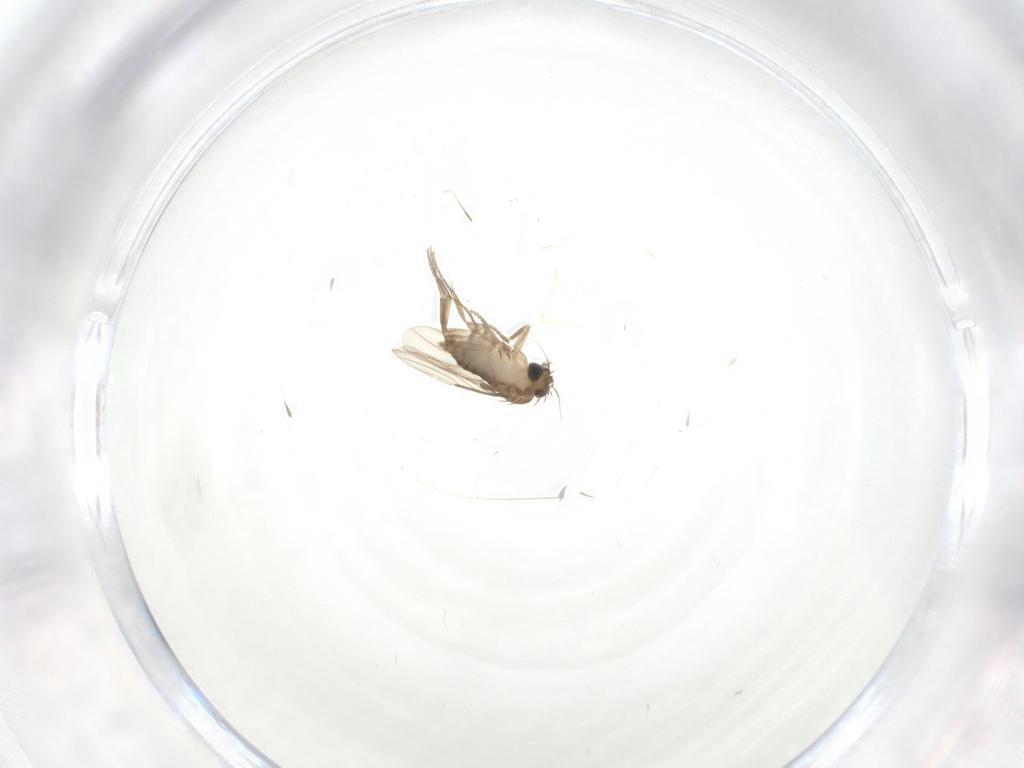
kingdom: Animalia
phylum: Arthropoda
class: Insecta
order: Diptera
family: Phoridae
